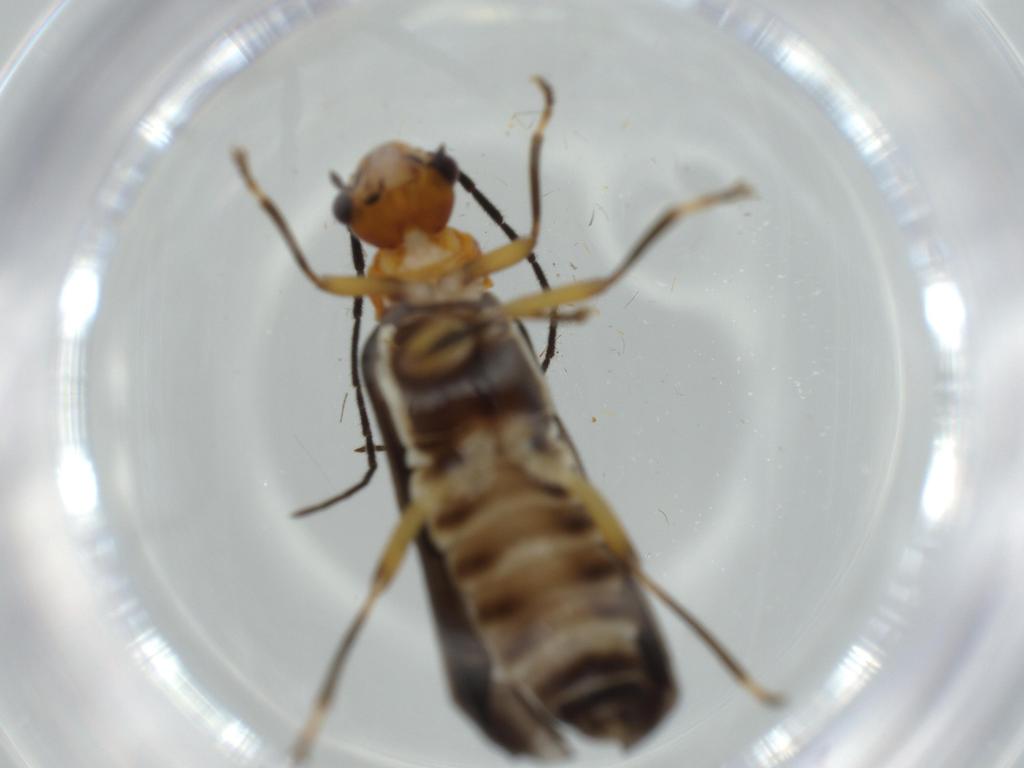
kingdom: Animalia
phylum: Arthropoda
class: Insecta
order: Coleoptera
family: Cantharidae
